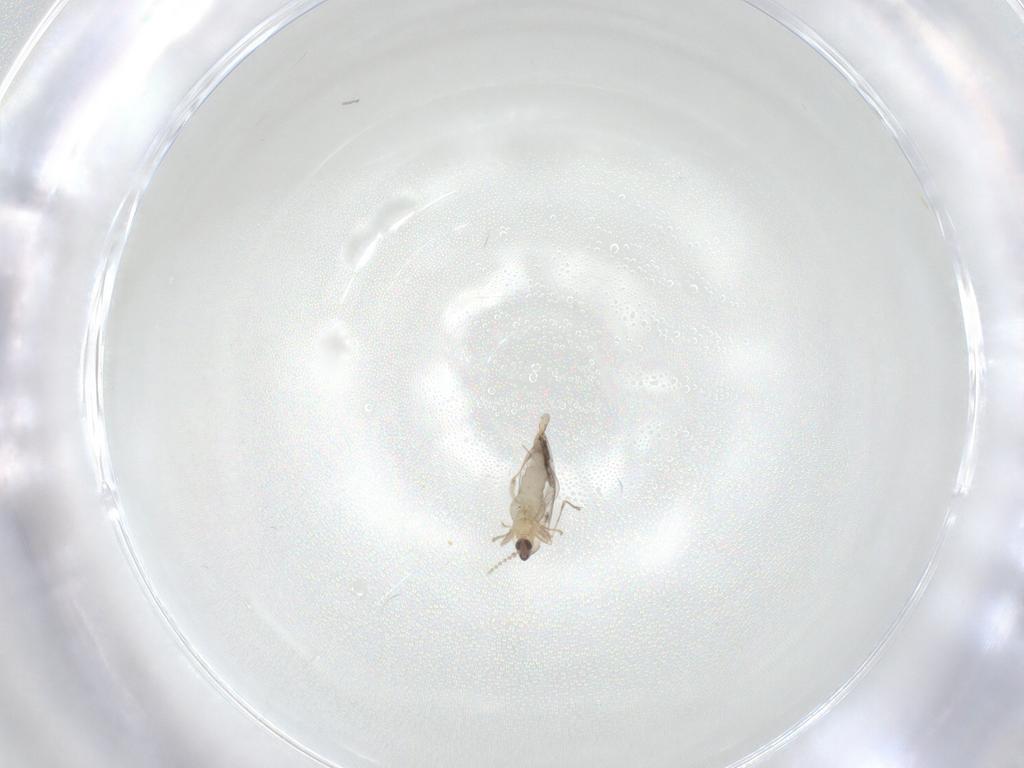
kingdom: Animalia
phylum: Arthropoda
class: Insecta
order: Diptera
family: Cecidomyiidae
